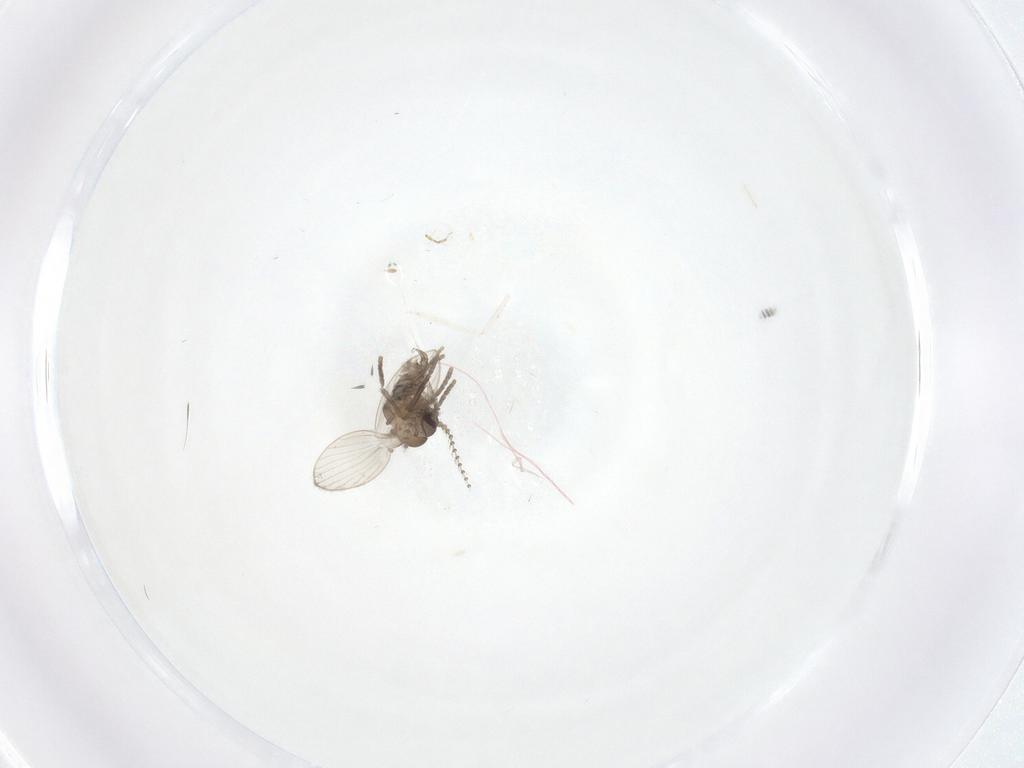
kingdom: Animalia
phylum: Arthropoda
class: Insecta
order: Diptera
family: Psychodidae
